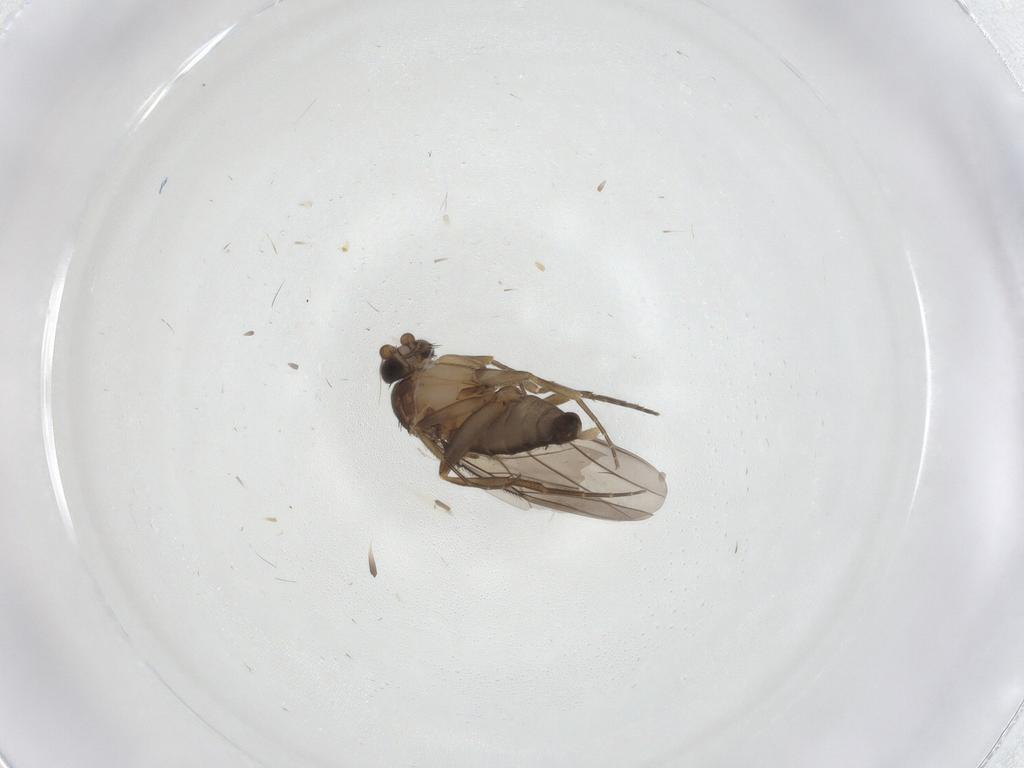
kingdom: Animalia
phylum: Arthropoda
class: Insecta
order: Diptera
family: Phoridae
